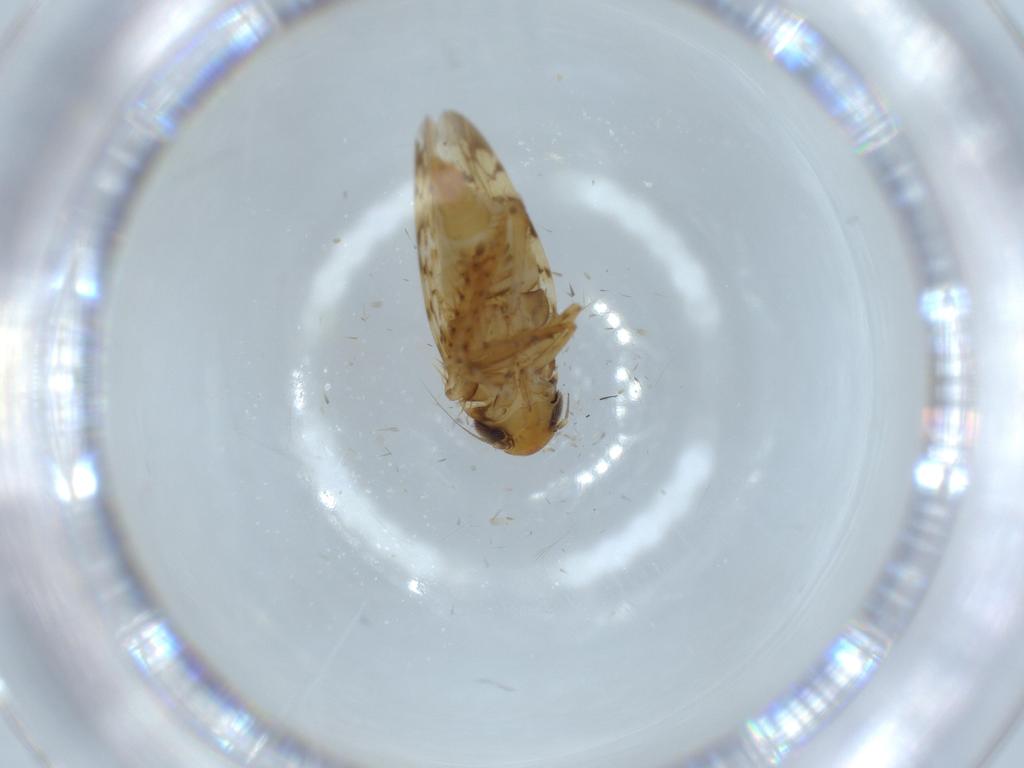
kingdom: Animalia
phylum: Arthropoda
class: Insecta
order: Hemiptera
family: Cicadellidae
